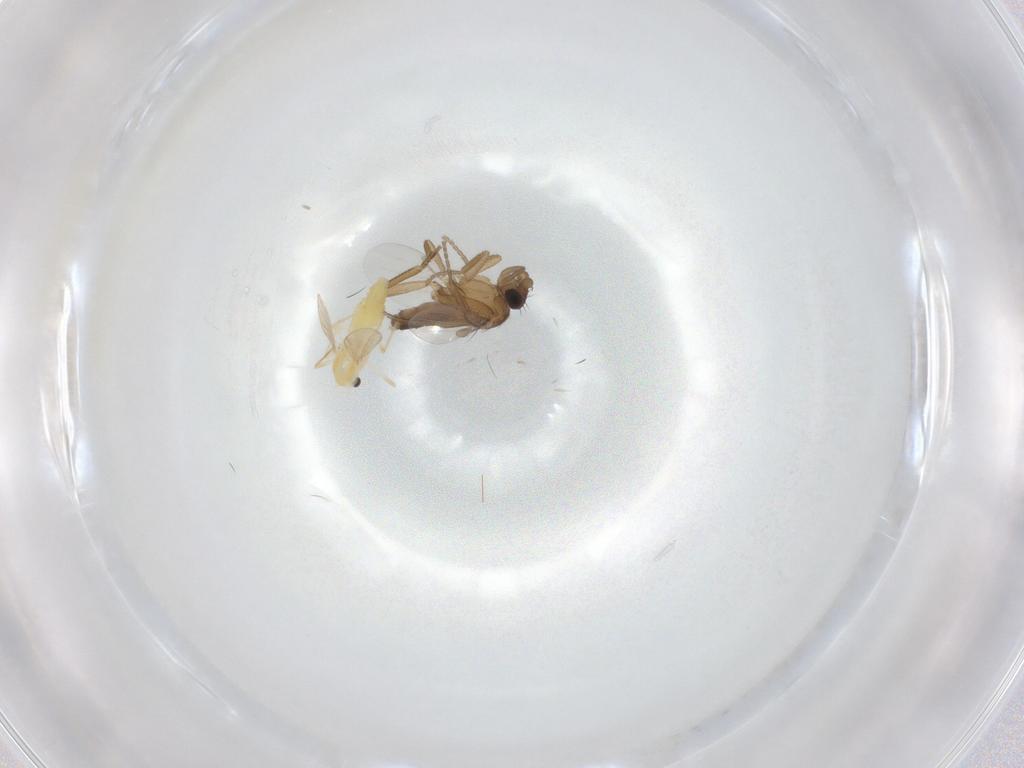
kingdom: Animalia
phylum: Arthropoda
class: Insecta
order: Diptera
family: Chironomidae
